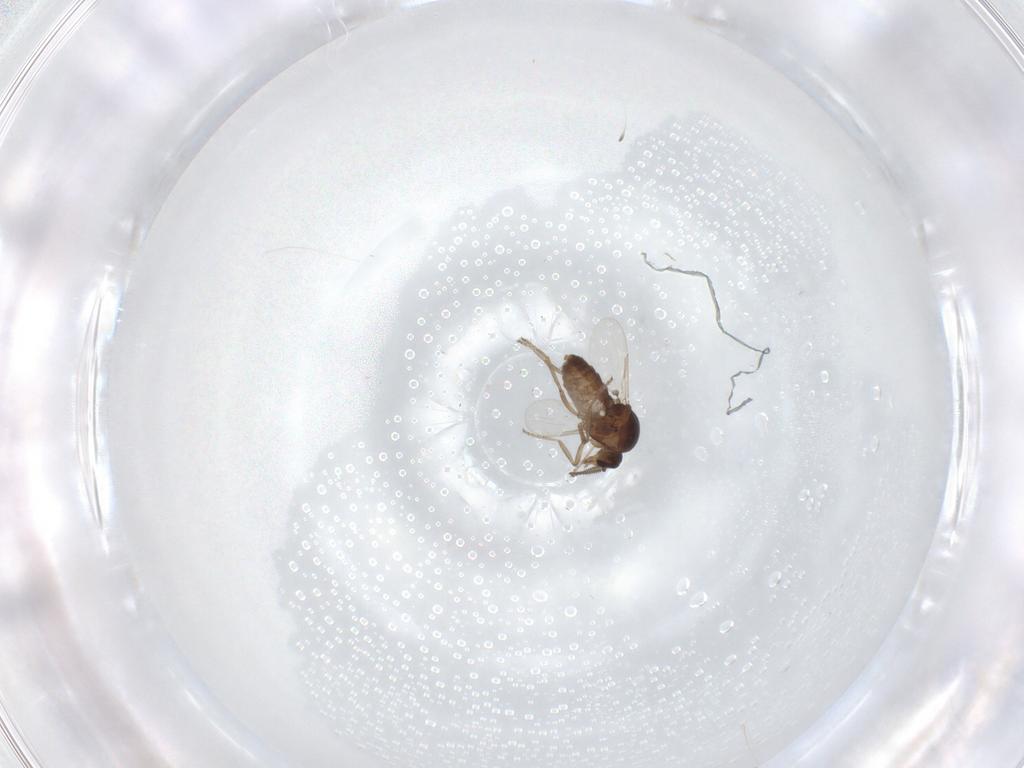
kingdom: Animalia
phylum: Arthropoda
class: Insecta
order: Diptera
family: Ceratopogonidae
